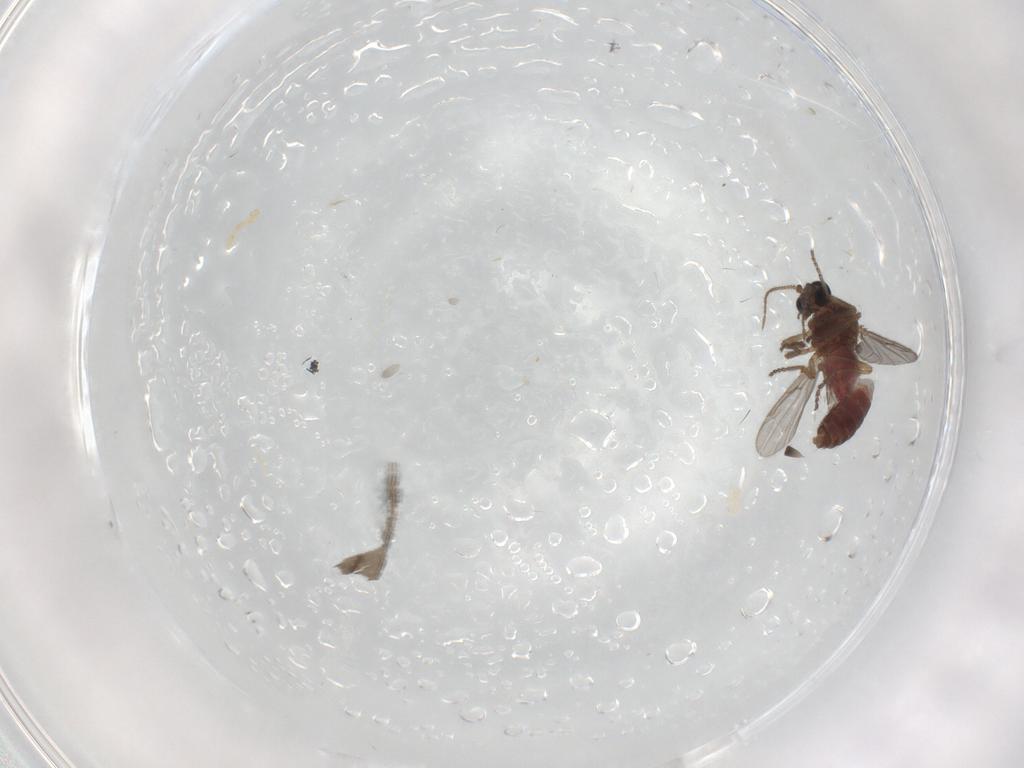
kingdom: Animalia
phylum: Arthropoda
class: Insecta
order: Diptera
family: Ceratopogonidae
